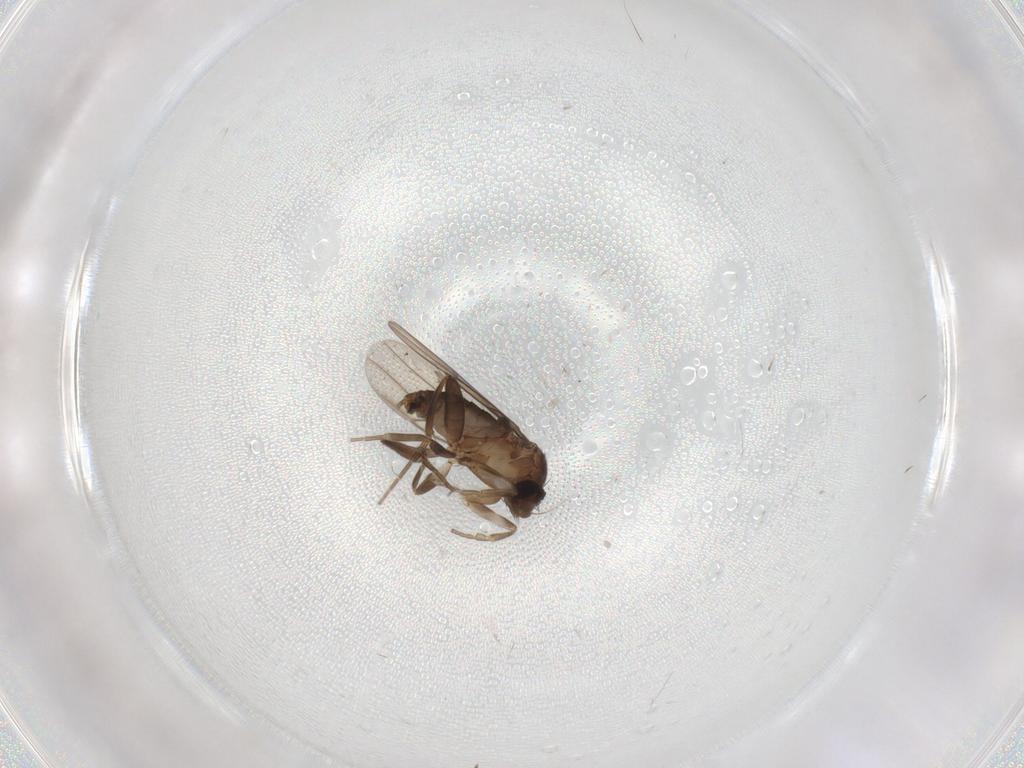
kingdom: Animalia
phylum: Arthropoda
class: Insecta
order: Diptera
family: Phoridae
